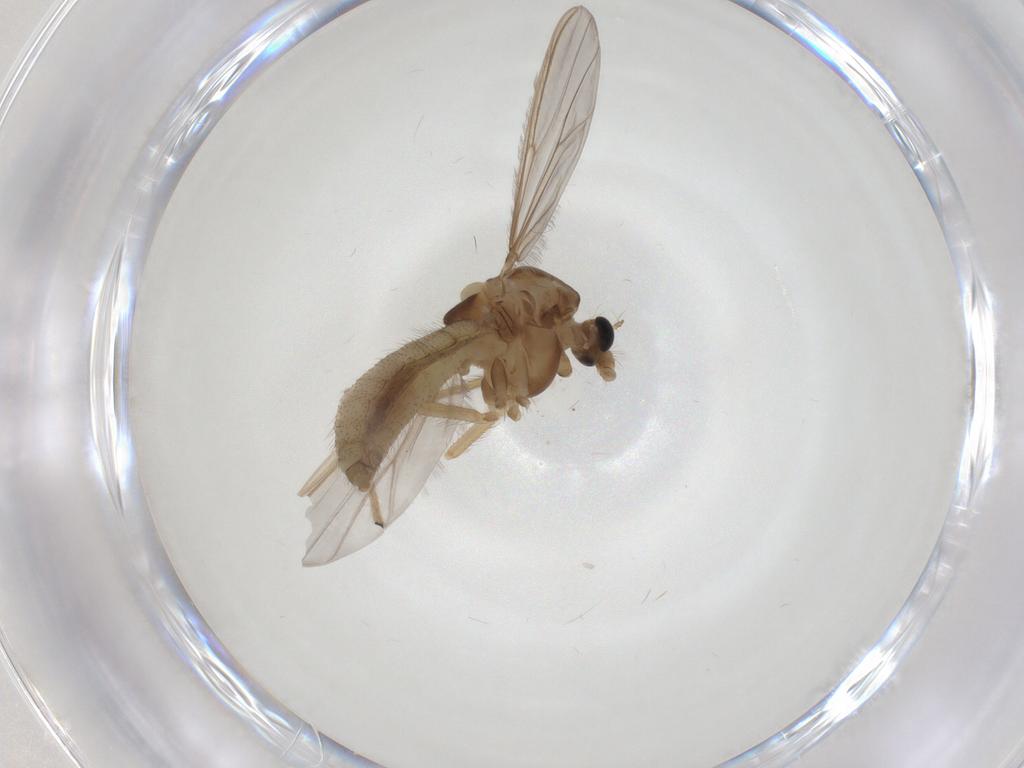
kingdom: Animalia
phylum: Arthropoda
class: Insecta
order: Diptera
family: Chironomidae
